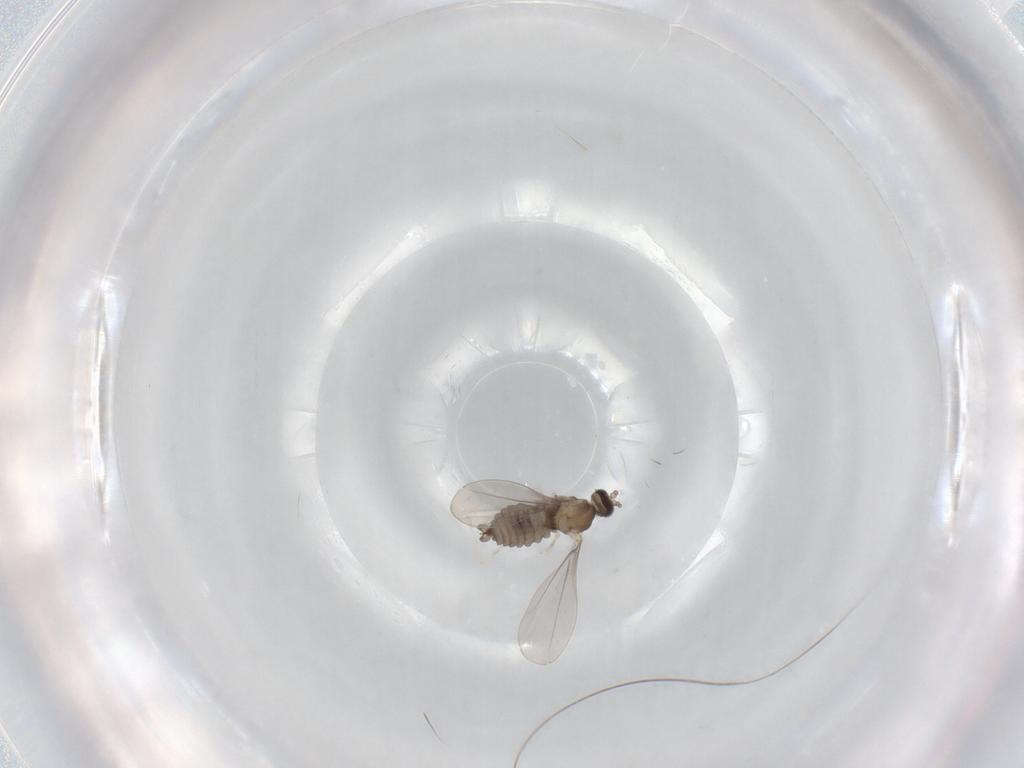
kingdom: Animalia
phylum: Arthropoda
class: Insecta
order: Diptera
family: Cecidomyiidae
